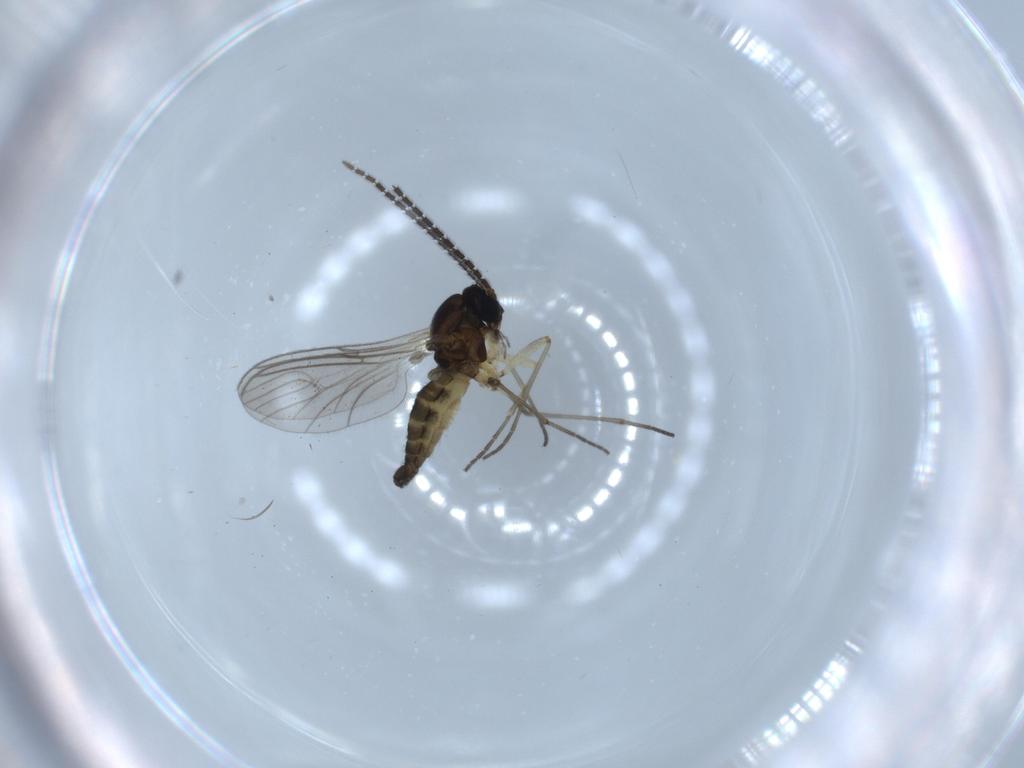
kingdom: Animalia
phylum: Arthropoda
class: Insecta
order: Diptera
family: Sciaridae
